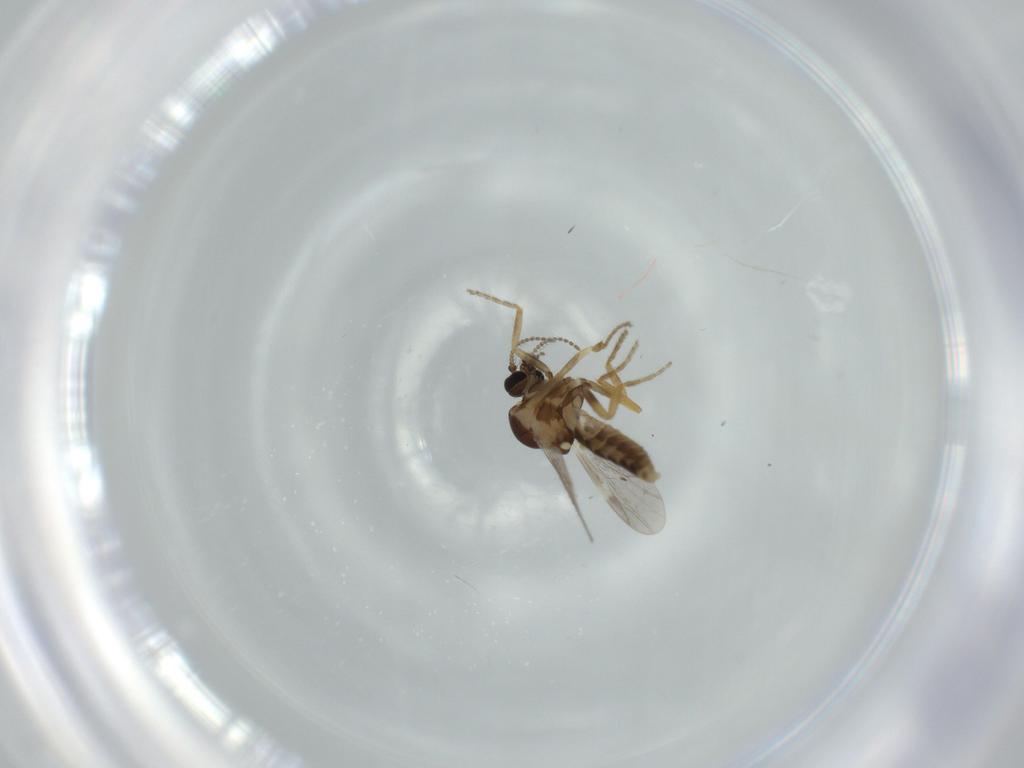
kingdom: Animalia
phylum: Arthropoda
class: Insecta
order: Diptera
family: Ceratopogonidae
